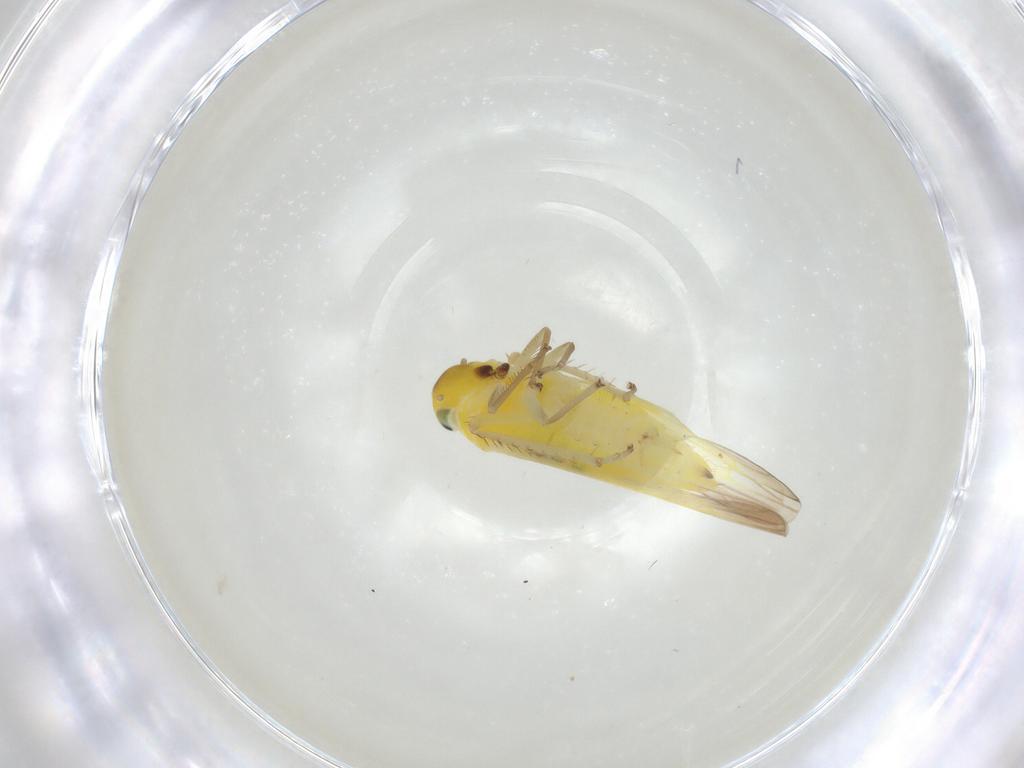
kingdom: Animalia
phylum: Arthropoda
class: Insecta
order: Hemiptera
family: Cicadellidae
